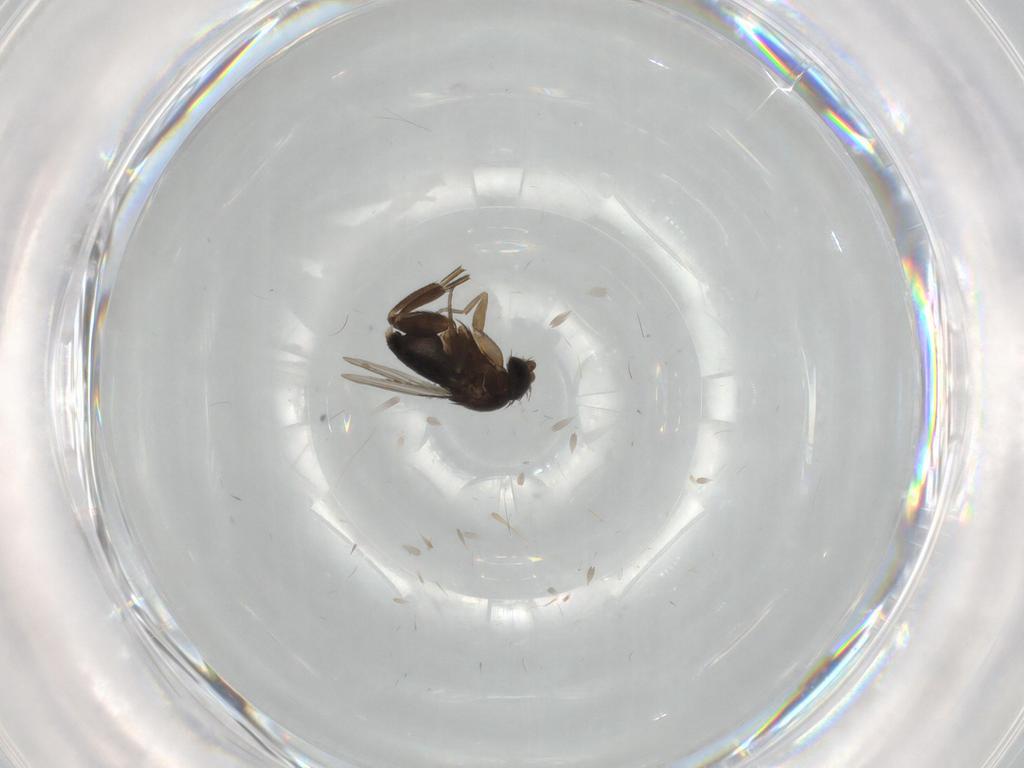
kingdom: Animalia
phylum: Arthropoda
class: Insecta
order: Diptera
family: Phoridae
